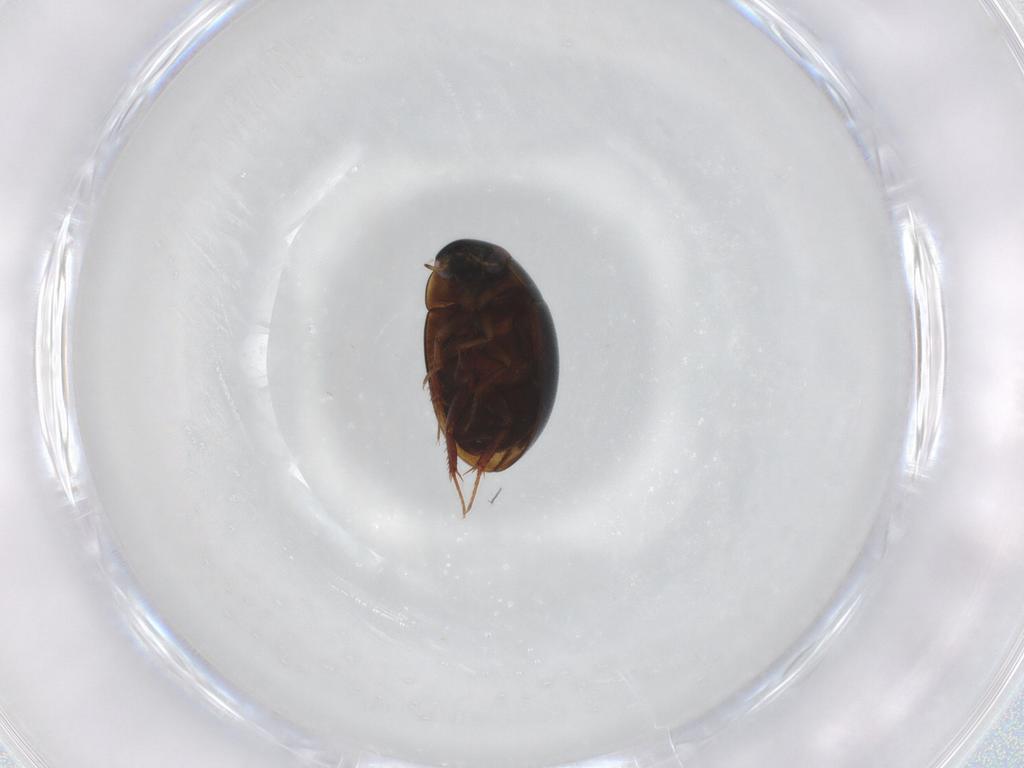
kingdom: Animalia
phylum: Arthropoda
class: Insecta
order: Coleoptera
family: Hydrophilidae
